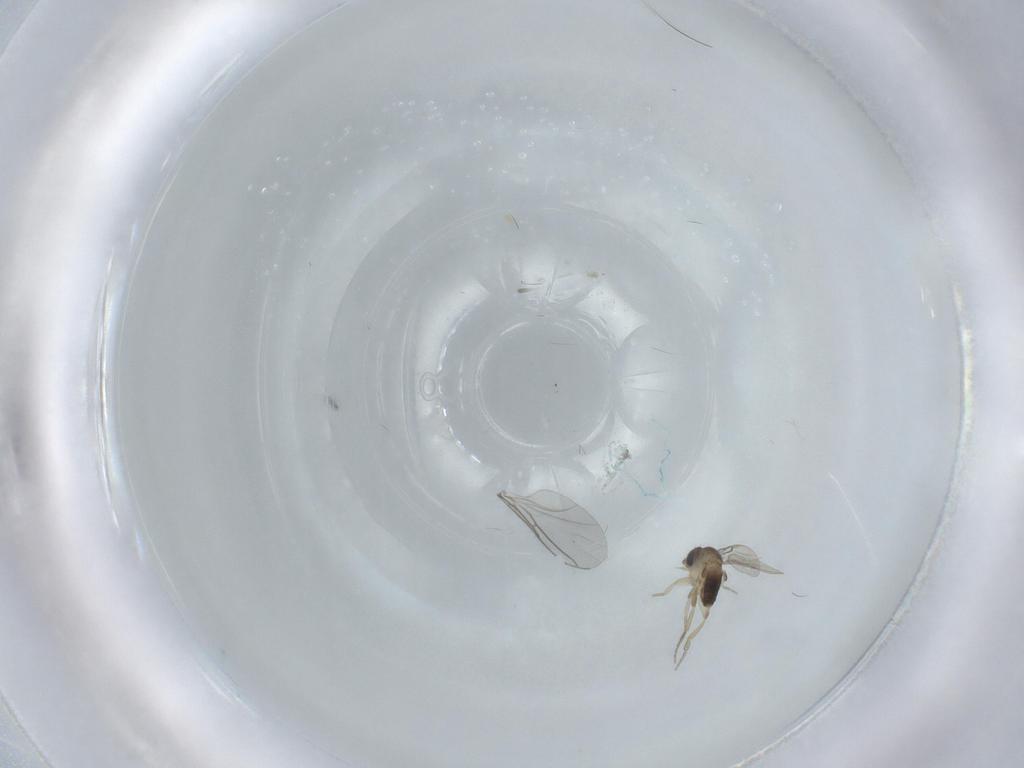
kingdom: Animalia
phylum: Arthropoda
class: Insecta
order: Diptera
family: Phoridae
